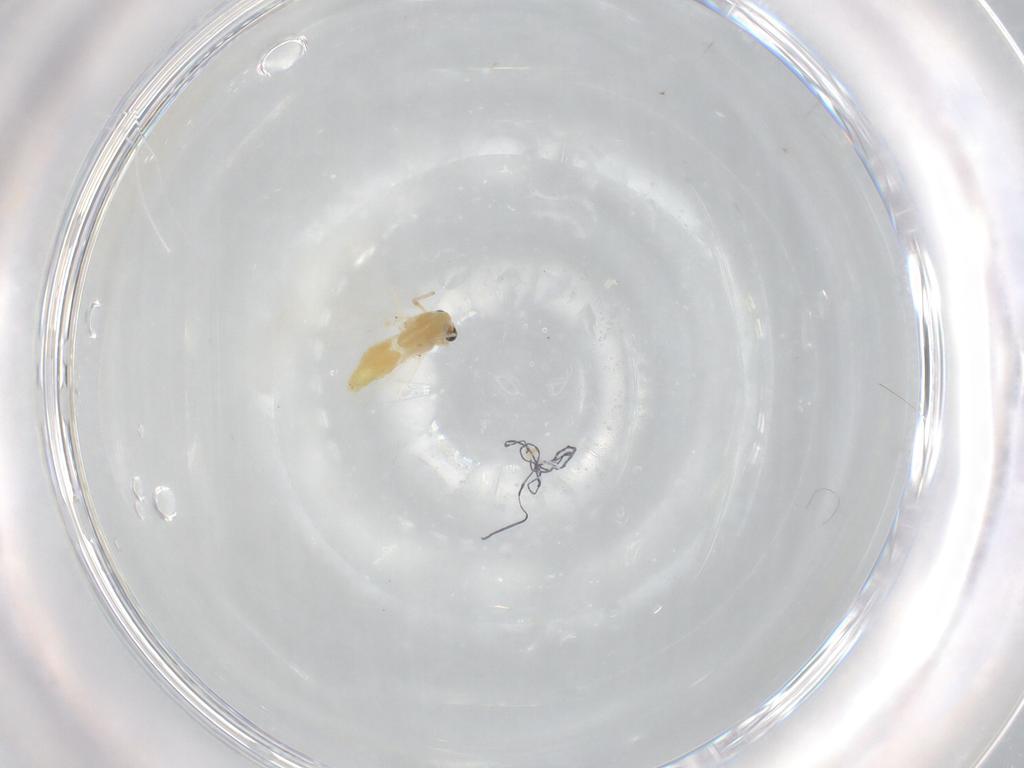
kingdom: Animalia
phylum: Arthropoda
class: Insecta
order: Diptera
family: Chironomidae
